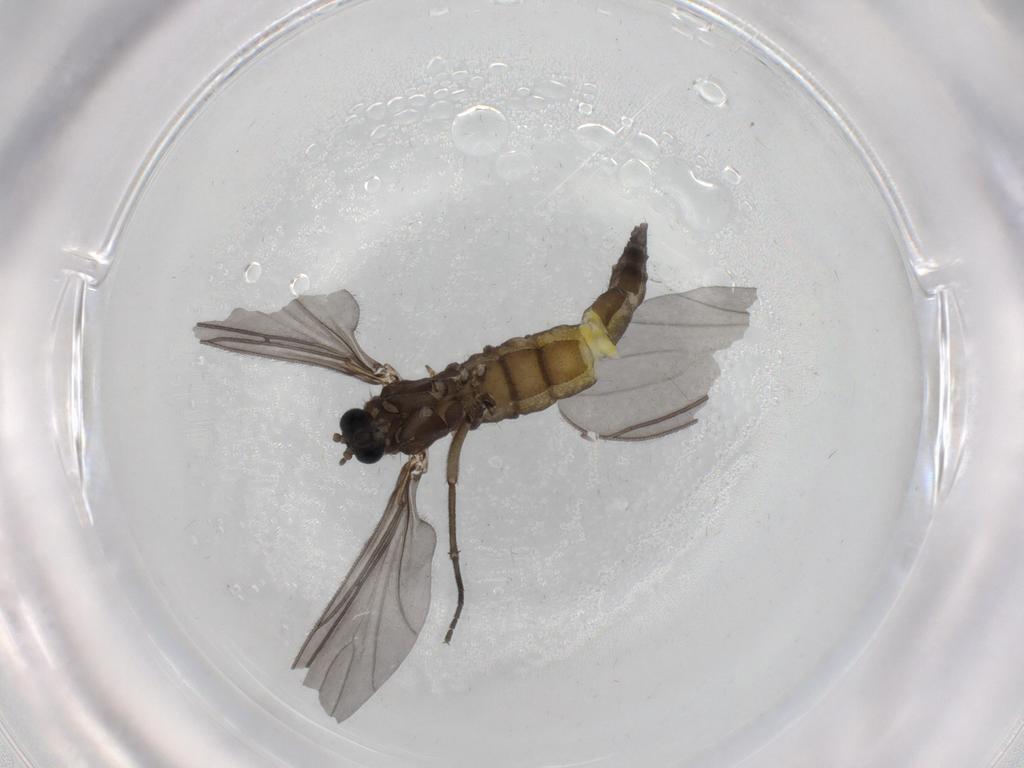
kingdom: Animalia
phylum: Arthropoda
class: Insecta
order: Diptera
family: Sciaridae
